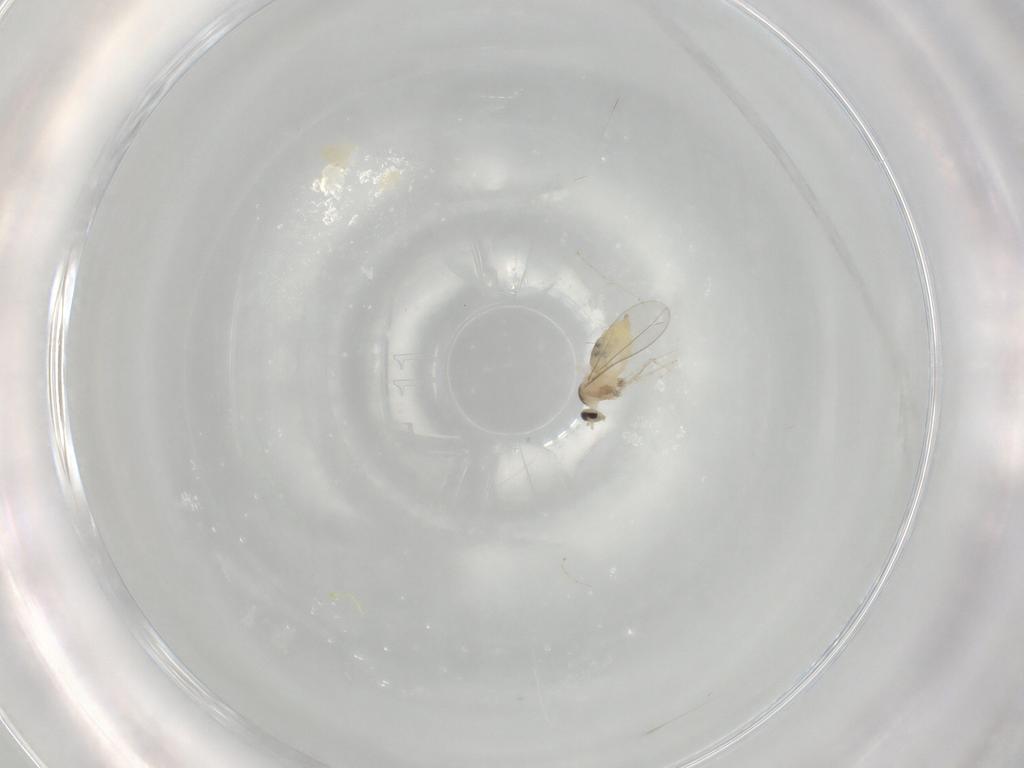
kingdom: Animalia
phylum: Arthropoda
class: Insecta
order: Diptera
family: Cecidomyiidae
